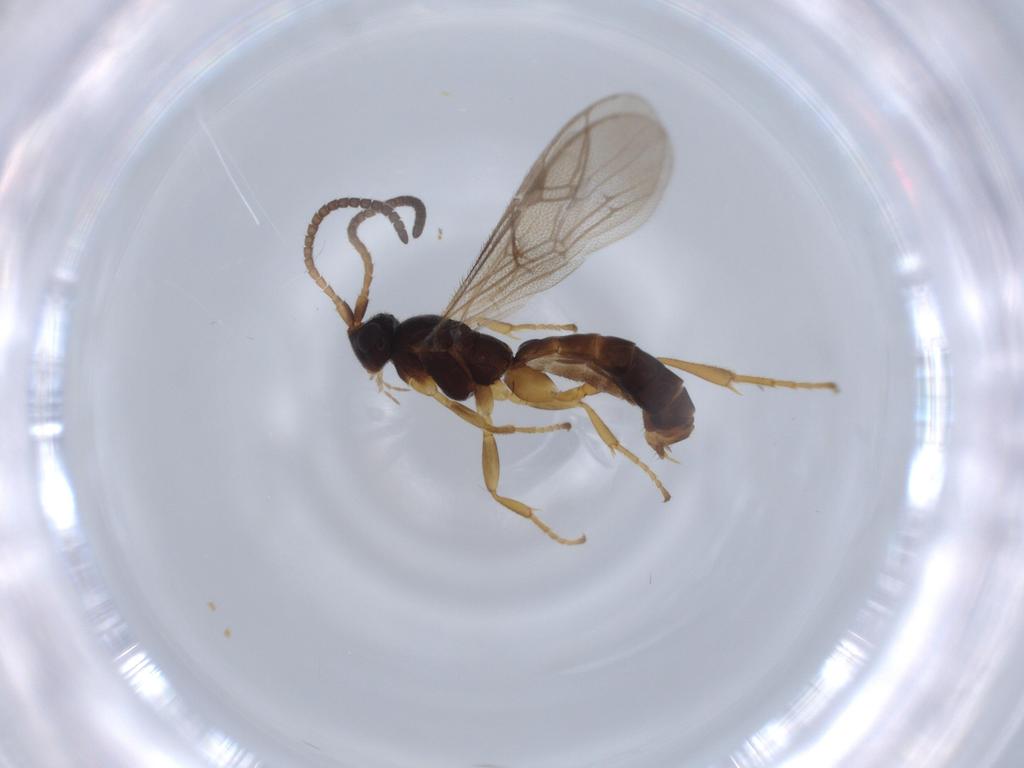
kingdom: Animalia
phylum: Arthropoda
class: Insecta
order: Hymenoptera
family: Ichneumonidae
